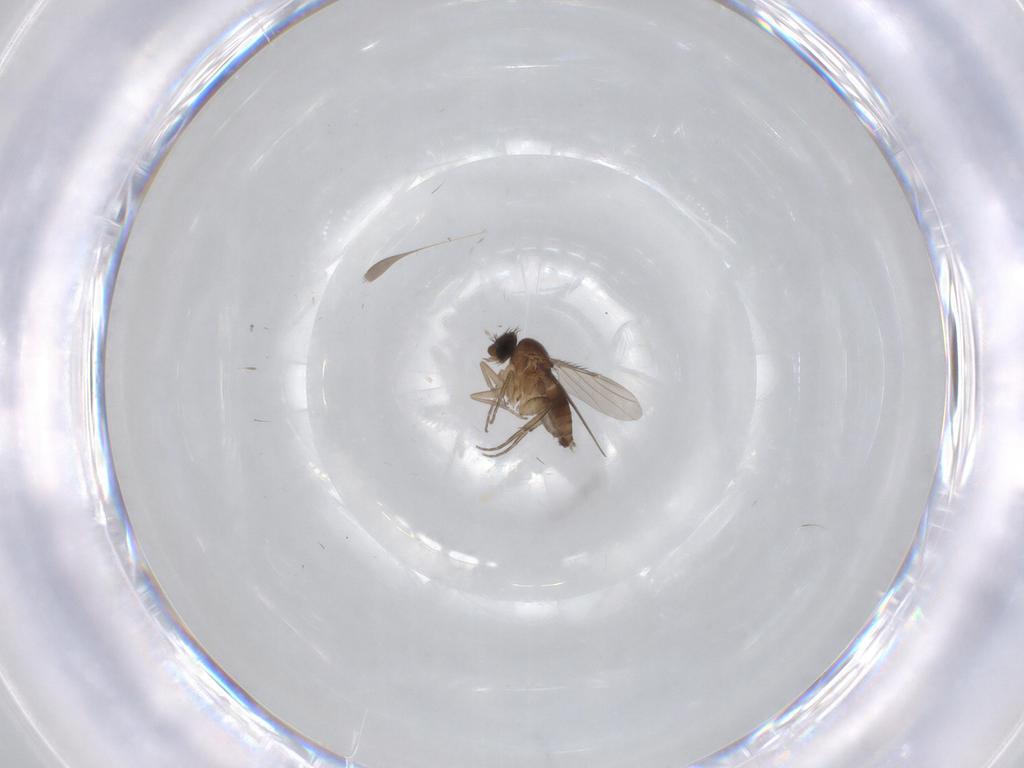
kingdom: Animalia
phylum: Arthropoda
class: Insecta
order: Diptera
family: Phoridae
